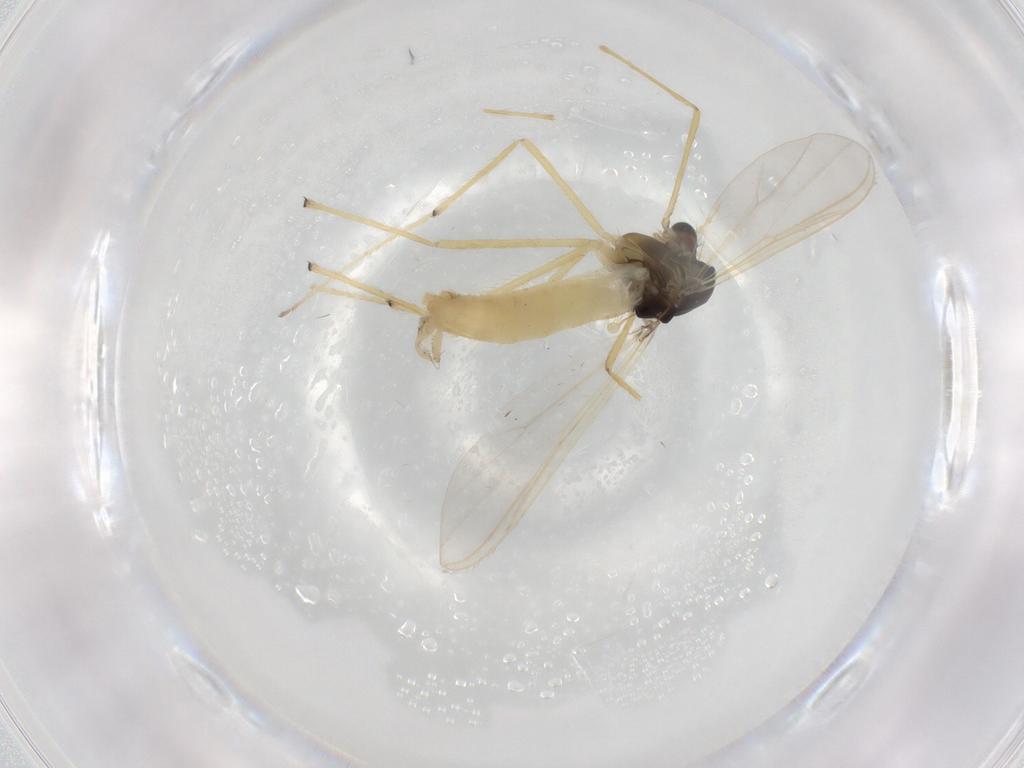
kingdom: Animalia
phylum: Arthropoda
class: Insecta
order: Diptera
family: Chironomidae
